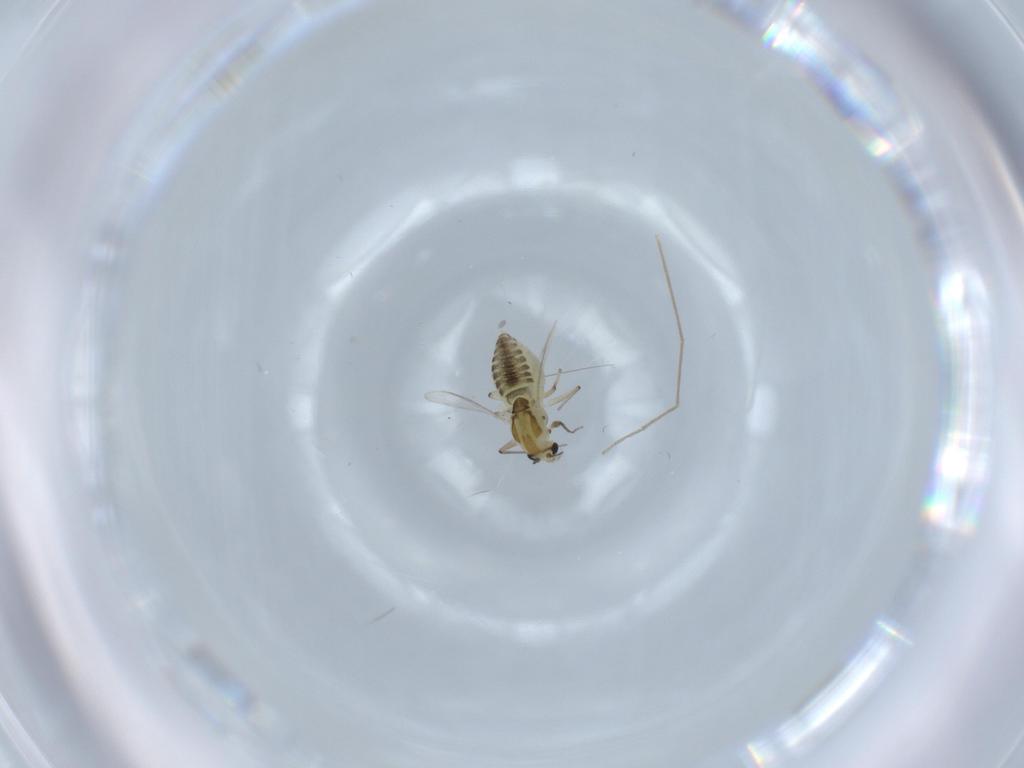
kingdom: Animalia
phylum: Arthropoda
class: Insecta
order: Diptera
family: Chironomidae
